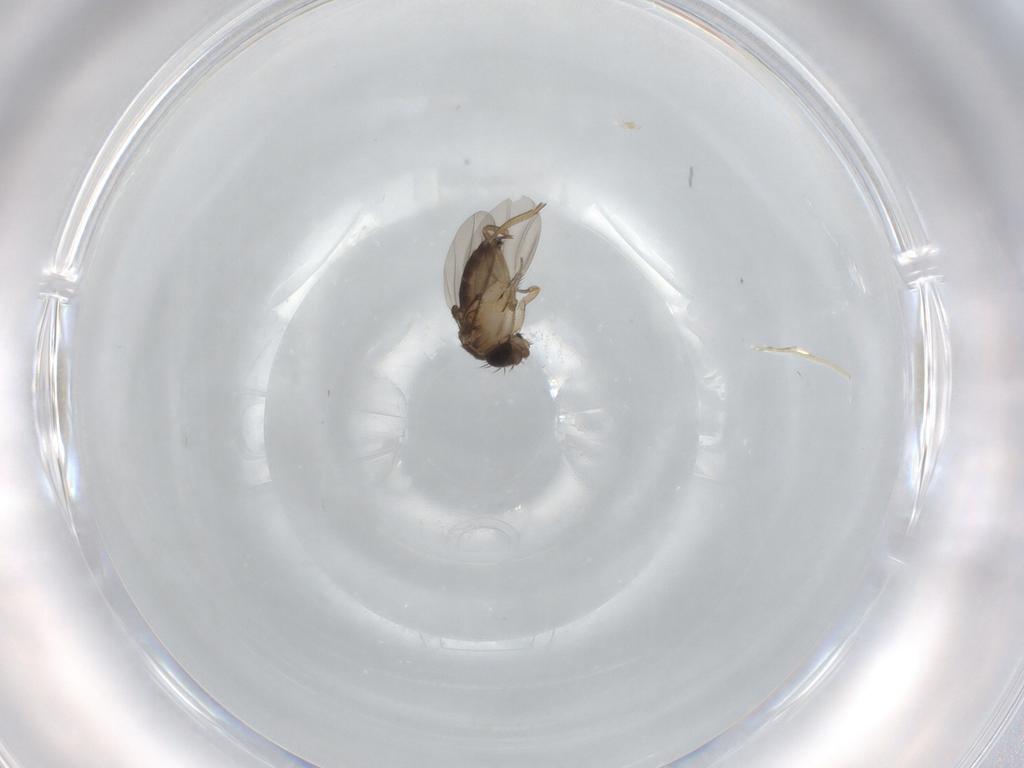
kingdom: Animalia
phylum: Arthropoda
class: Insecta
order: Diptera
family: Phoridae
